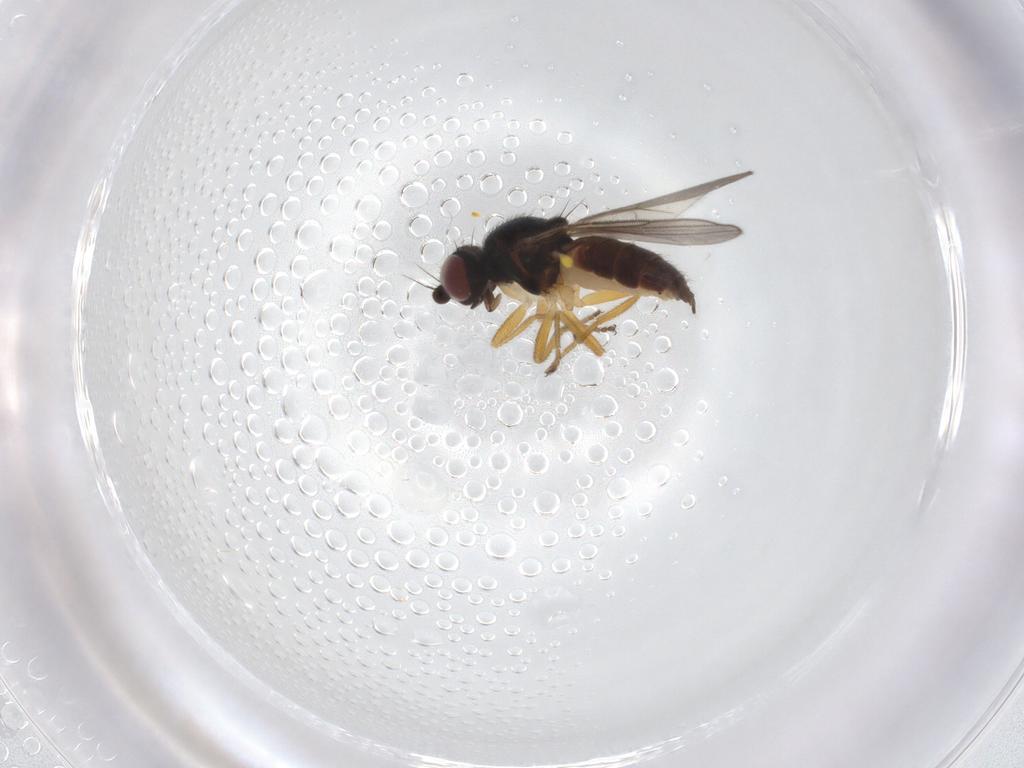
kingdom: Animalia
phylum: Arthropoda
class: Insecta
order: Diptera
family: Chloropidae
